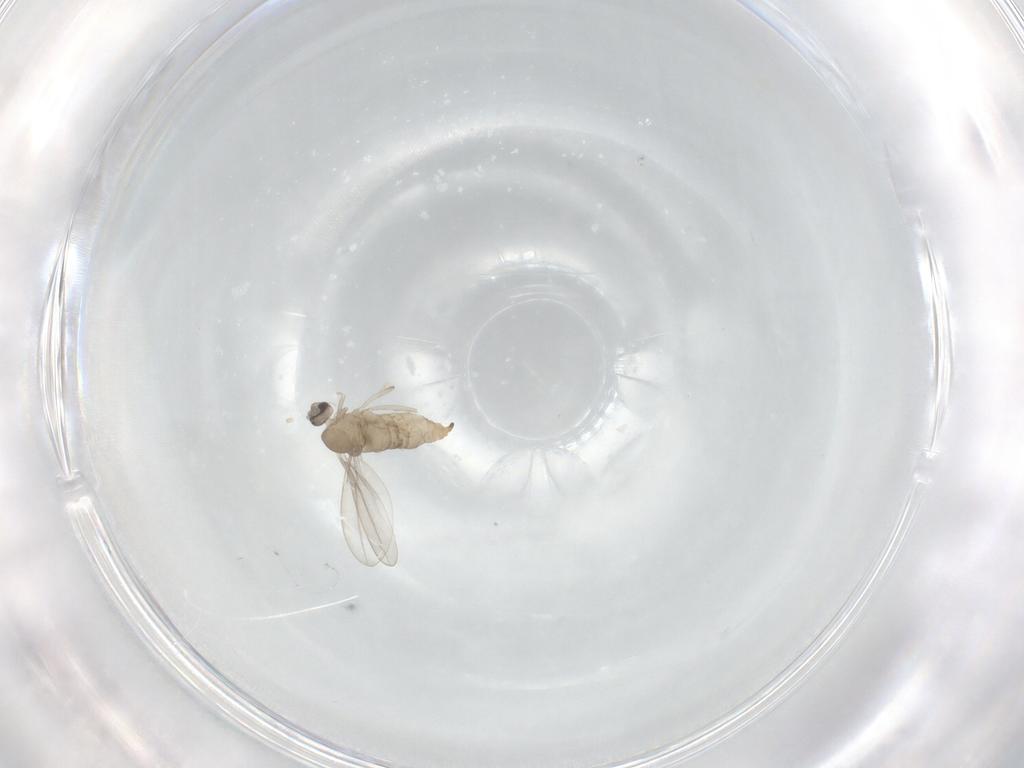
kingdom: Animalia
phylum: Arthropoda
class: Insecta
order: Diptera
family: Cecidomyiidae
